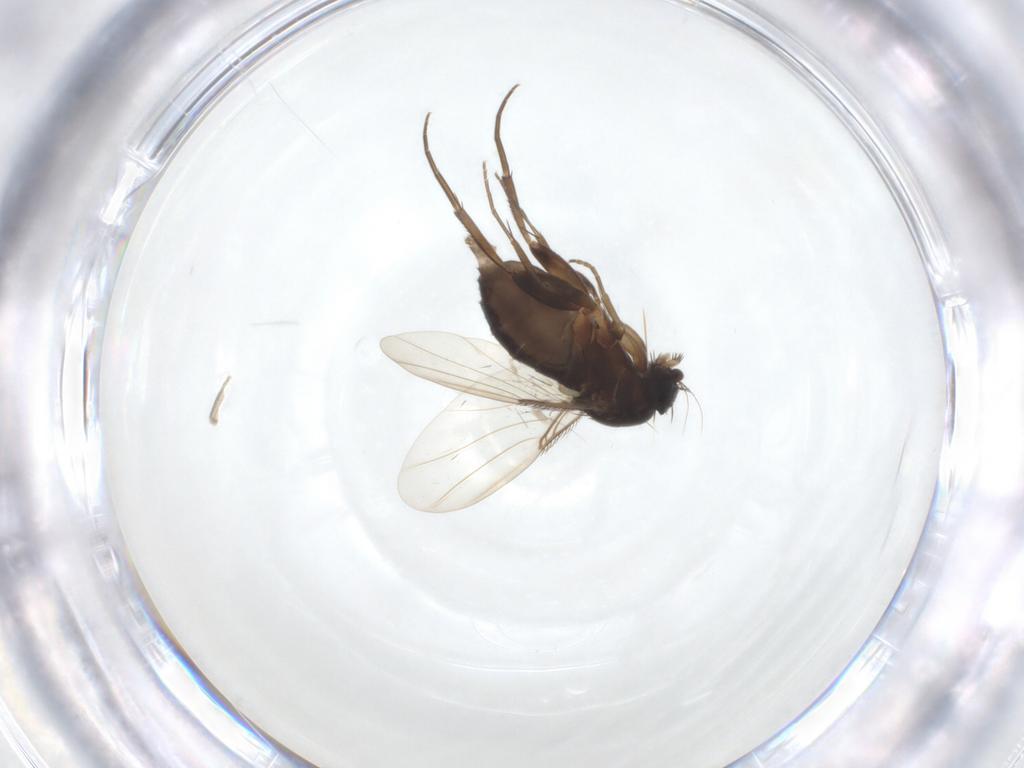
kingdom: Animalia
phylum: Arthropoda
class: Insecta
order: Diptera
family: Phoridae
